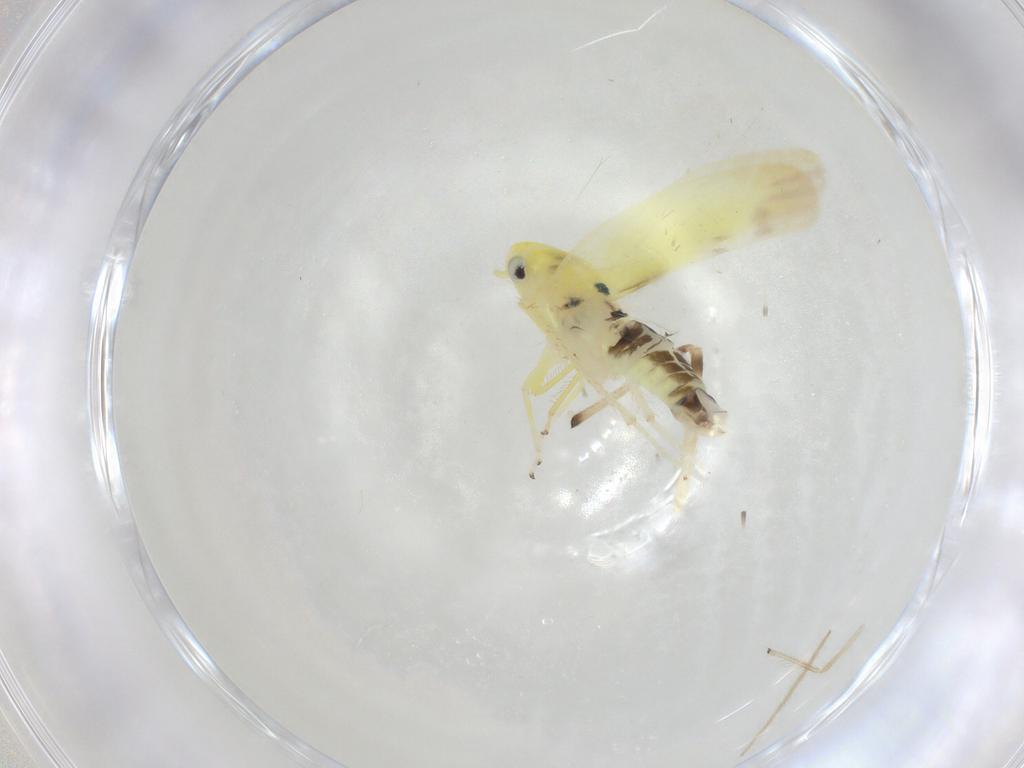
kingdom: Animalia
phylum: Arthropoda
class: Insecta
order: Hemiptera
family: Cicadellidae
